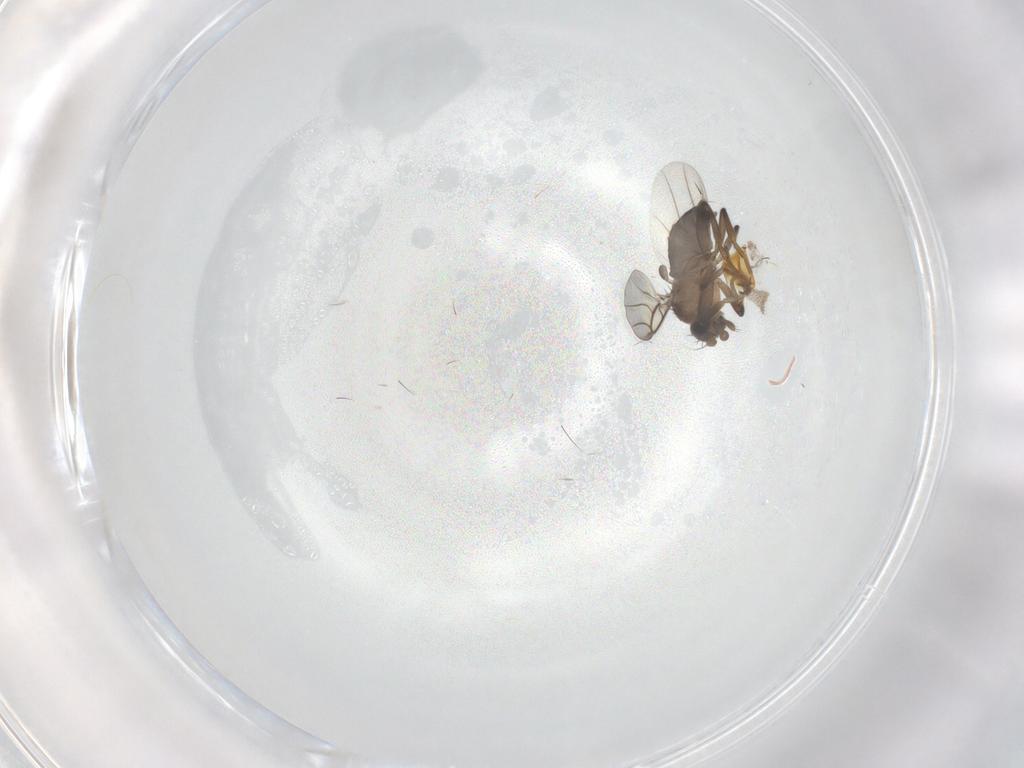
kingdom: Animalia
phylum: Arthropoda
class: Insecta
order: Diptera
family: Phoridae
